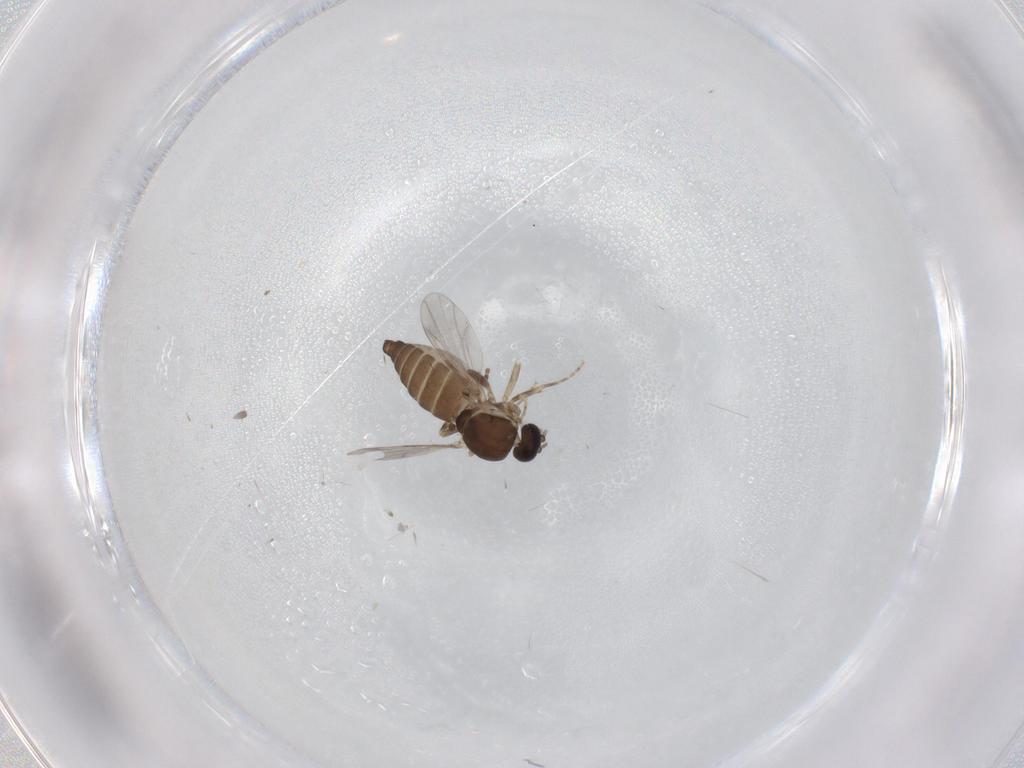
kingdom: Animalia
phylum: Arthropoda
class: Insecta
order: Diptera
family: Ceratopogonidae
